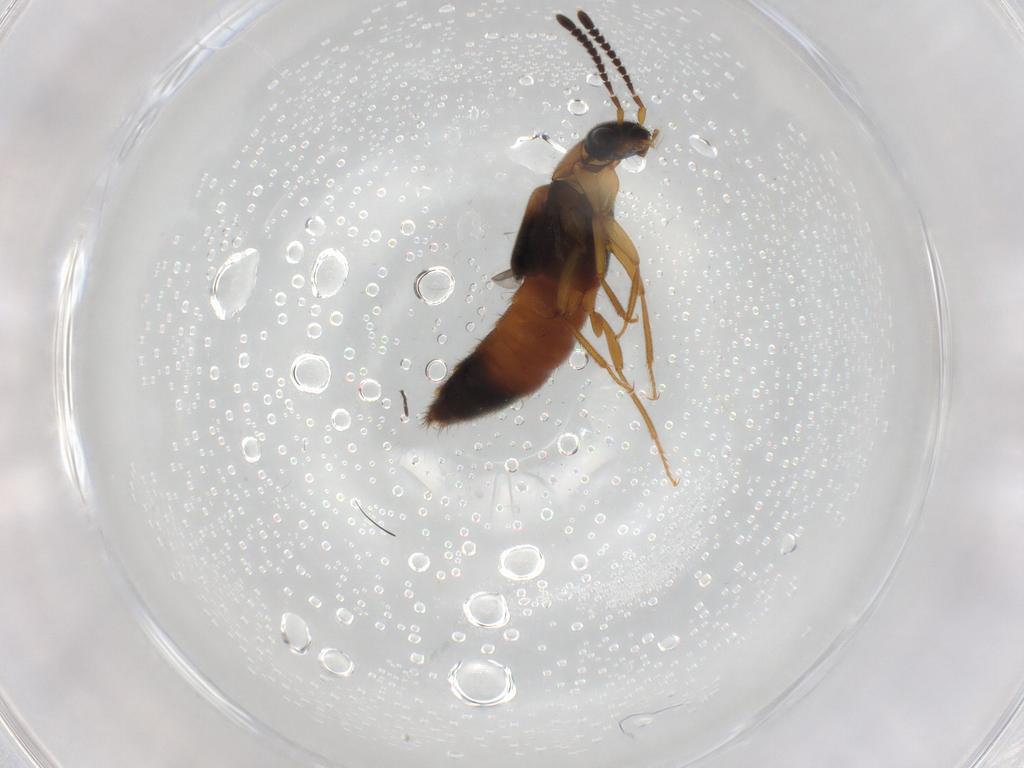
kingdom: Animalia
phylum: Arthropoda
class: Insecta
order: Coleoptera
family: Staphylinidae
